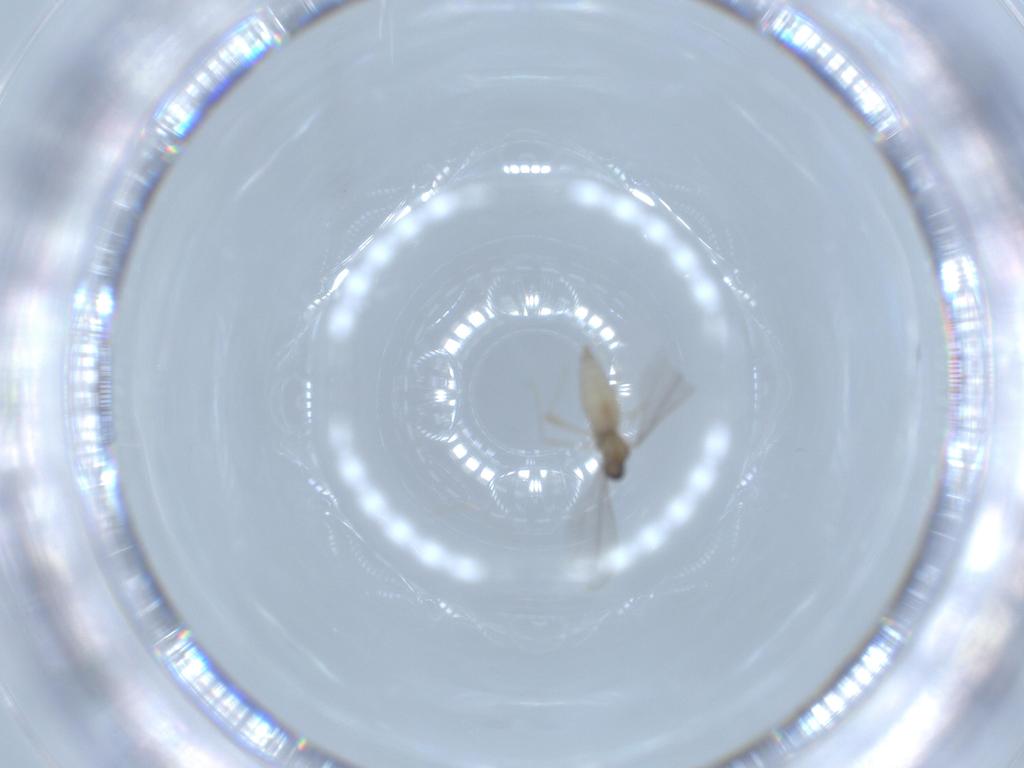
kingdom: Animalia
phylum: Arthropoda
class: Insecta
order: Diptera
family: Cecidomyiidae
